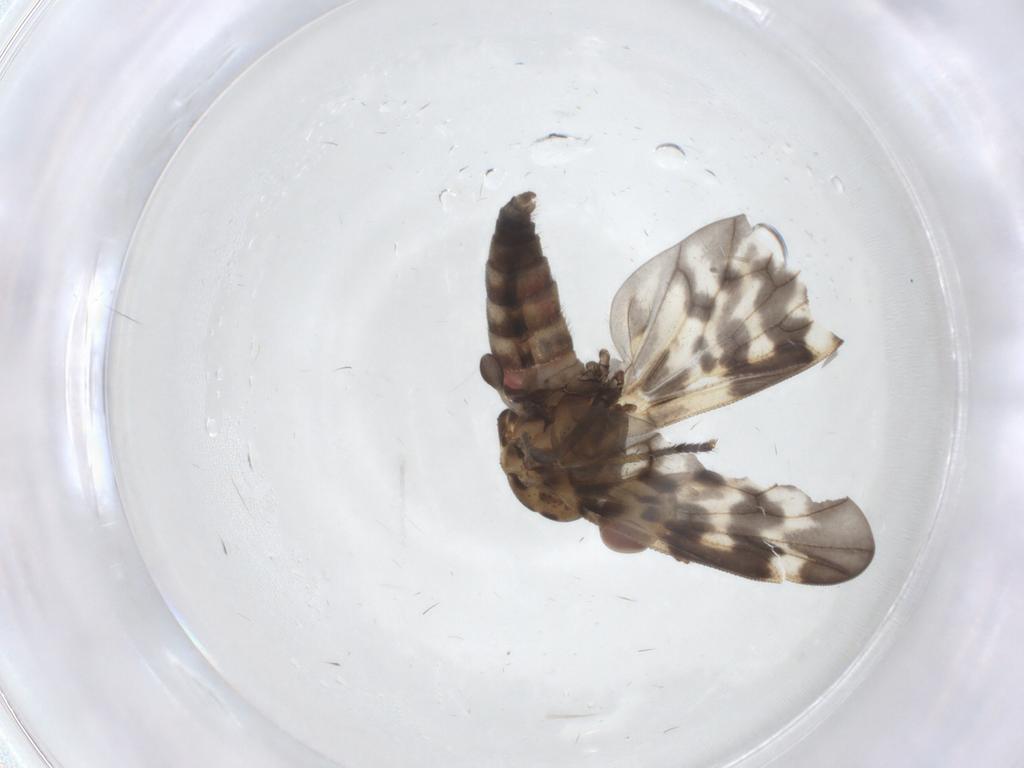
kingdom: Animalia
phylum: Arthropoda
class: Insecta
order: Diptera
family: Austroleptidae
